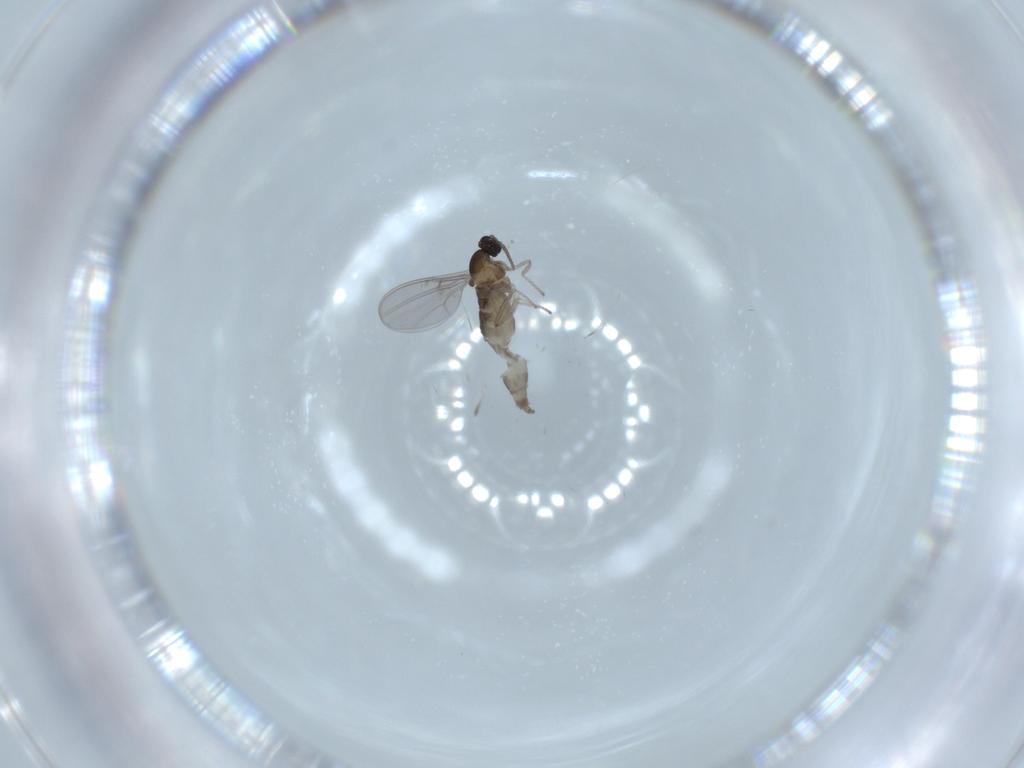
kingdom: Animalia
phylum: Arthropoda
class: Insecta
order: Diptera
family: Cecidomyiidae
